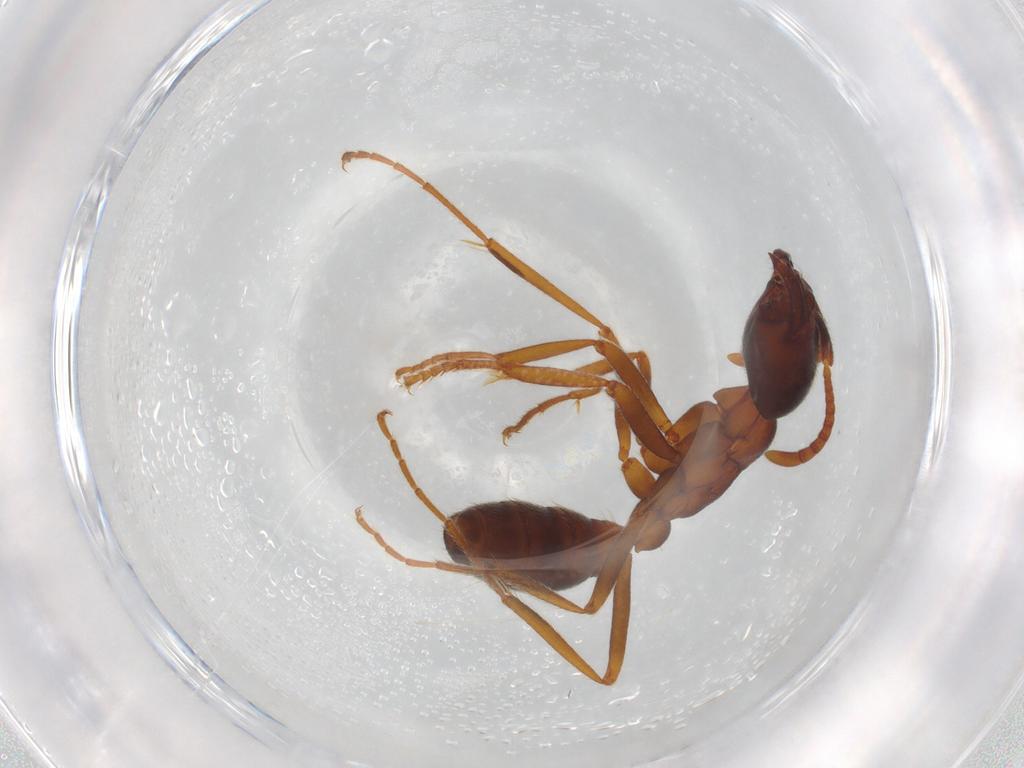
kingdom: Animalia
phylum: Arthropoda
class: Insecta
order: Hymenoptera
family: Formicidae
